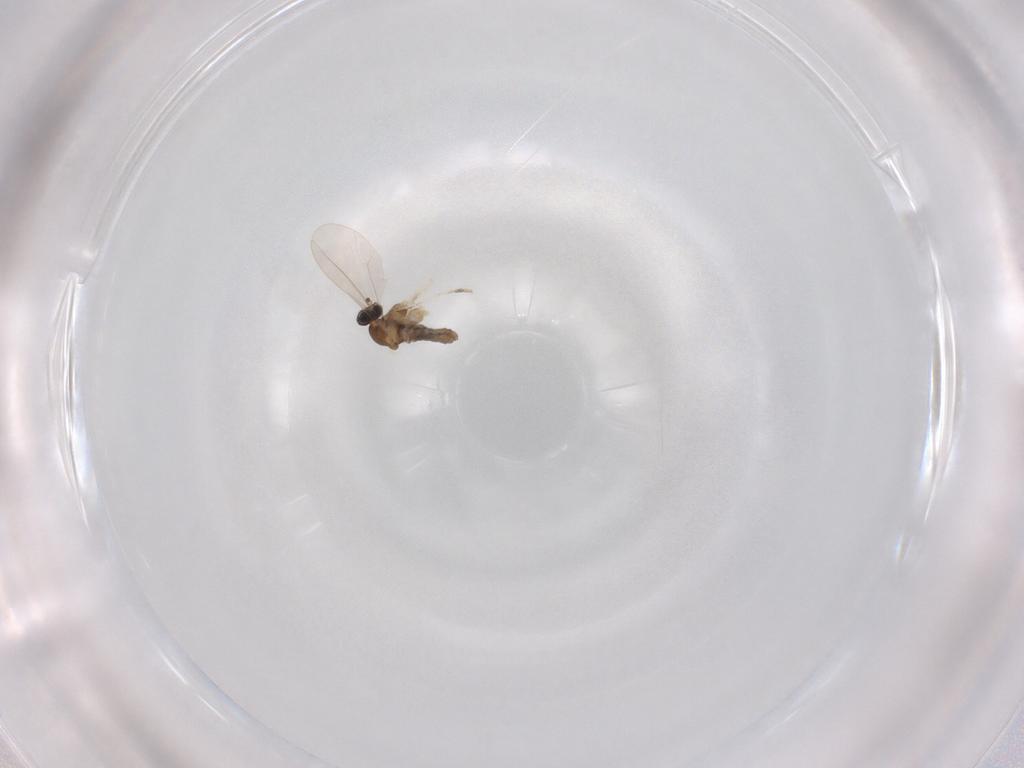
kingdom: Animalia
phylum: Arthropoda
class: Insecta
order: Diptera
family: Cecidomyiidae
